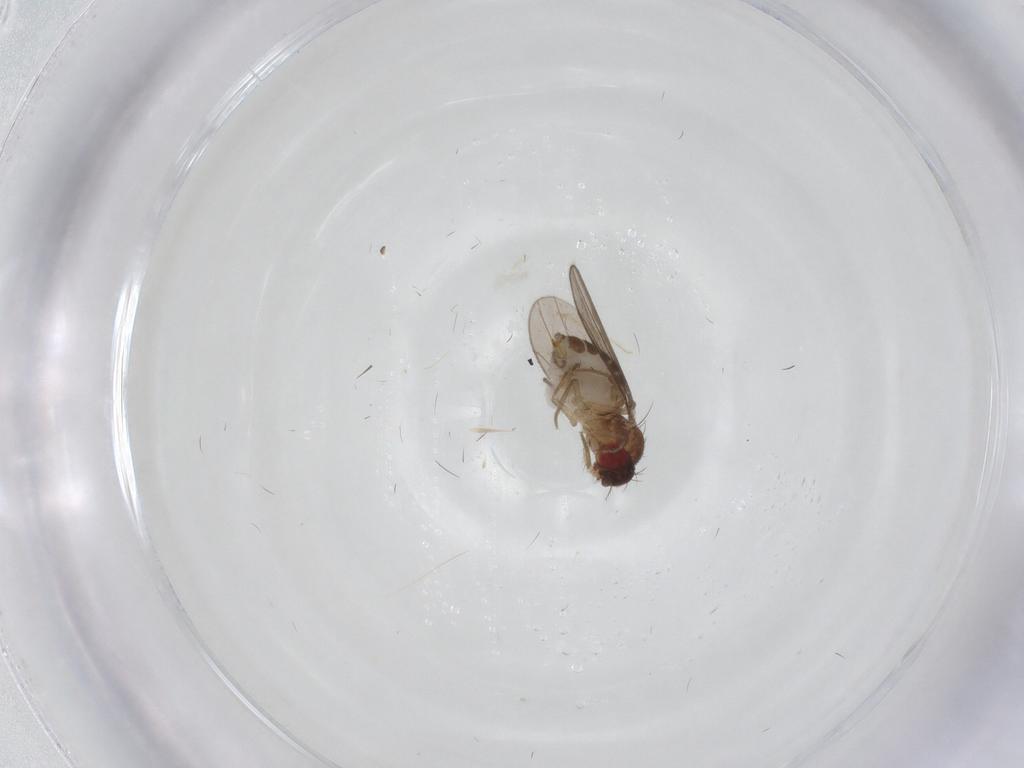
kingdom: Animalia
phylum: Arthropoda
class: Insecta
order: Diptera
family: Drosophilidae
